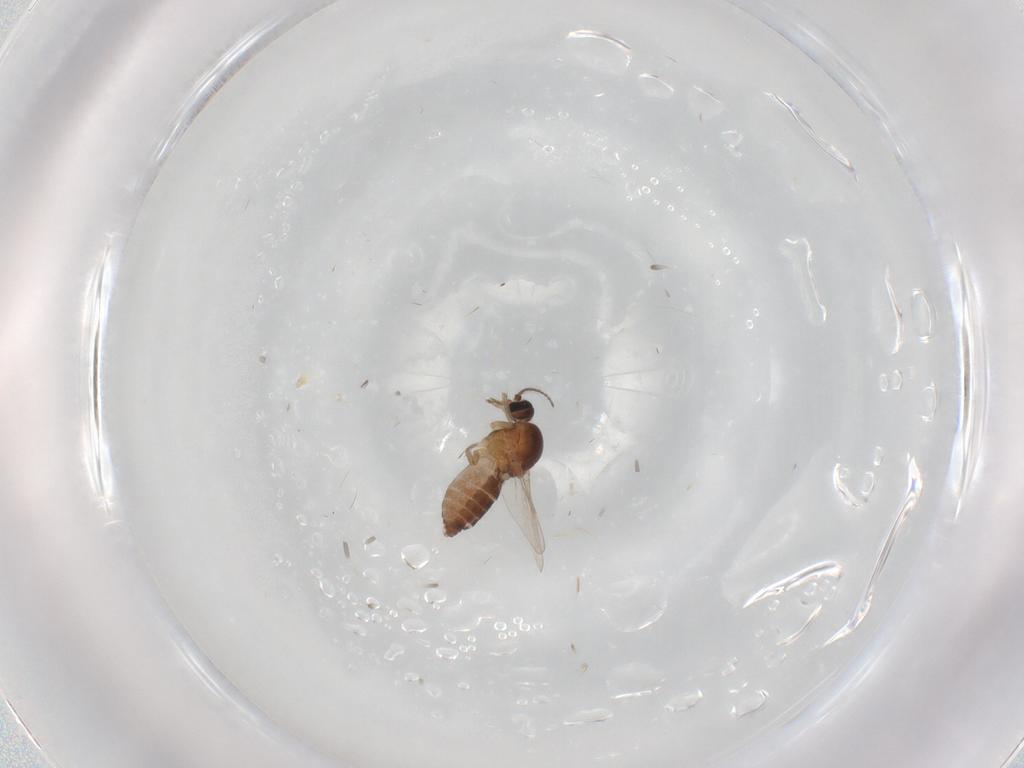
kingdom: Animalia
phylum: Arthropoda
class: Insecta
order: Diptera
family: Ceratopogonidae
